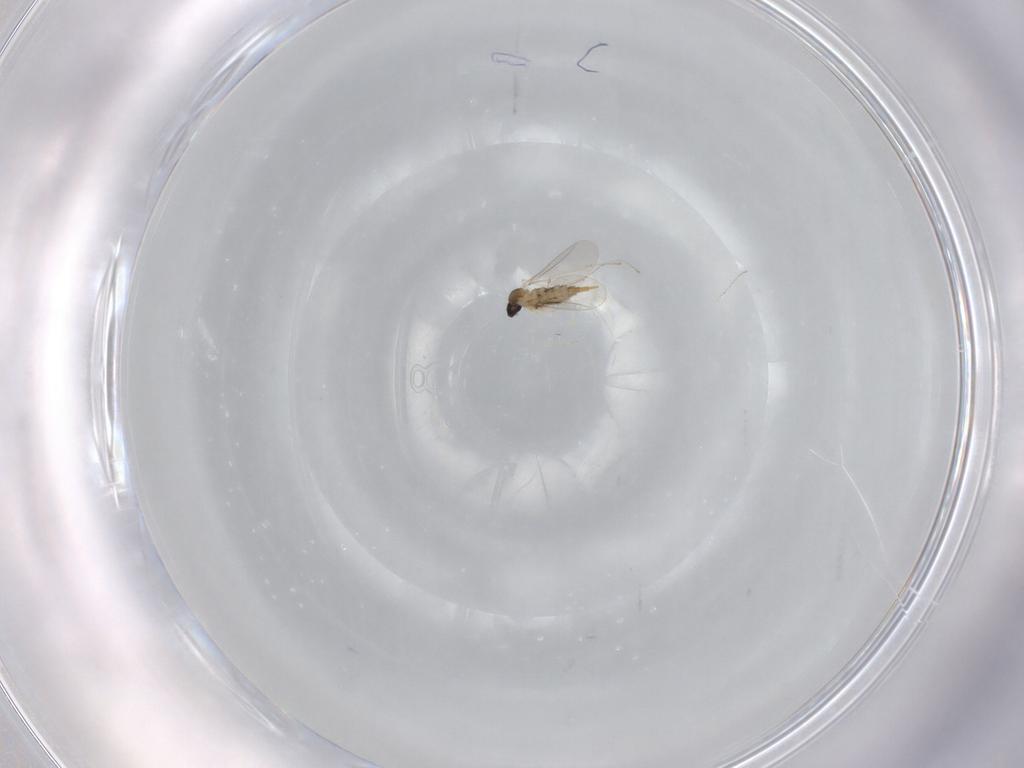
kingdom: Animalia
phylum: Arthropoda
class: Insecta
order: Diptera
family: Cecidomyiidae
